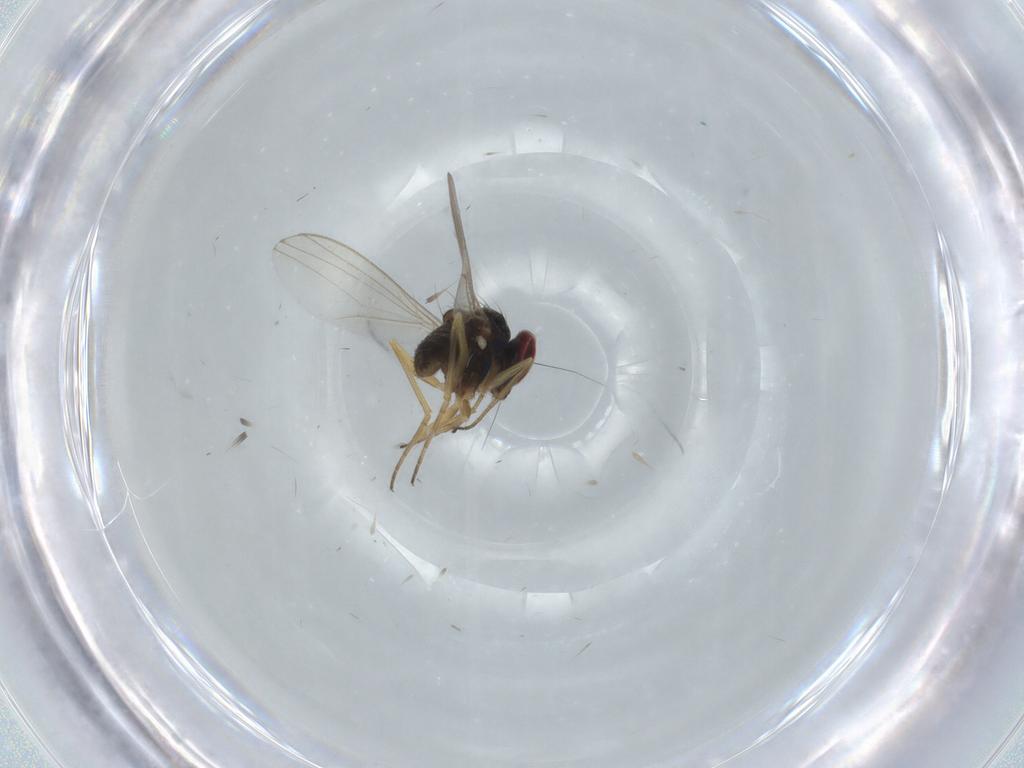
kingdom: Animalia
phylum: Arthropoda
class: Insecta
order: Diptera
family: Dolichopodidae
